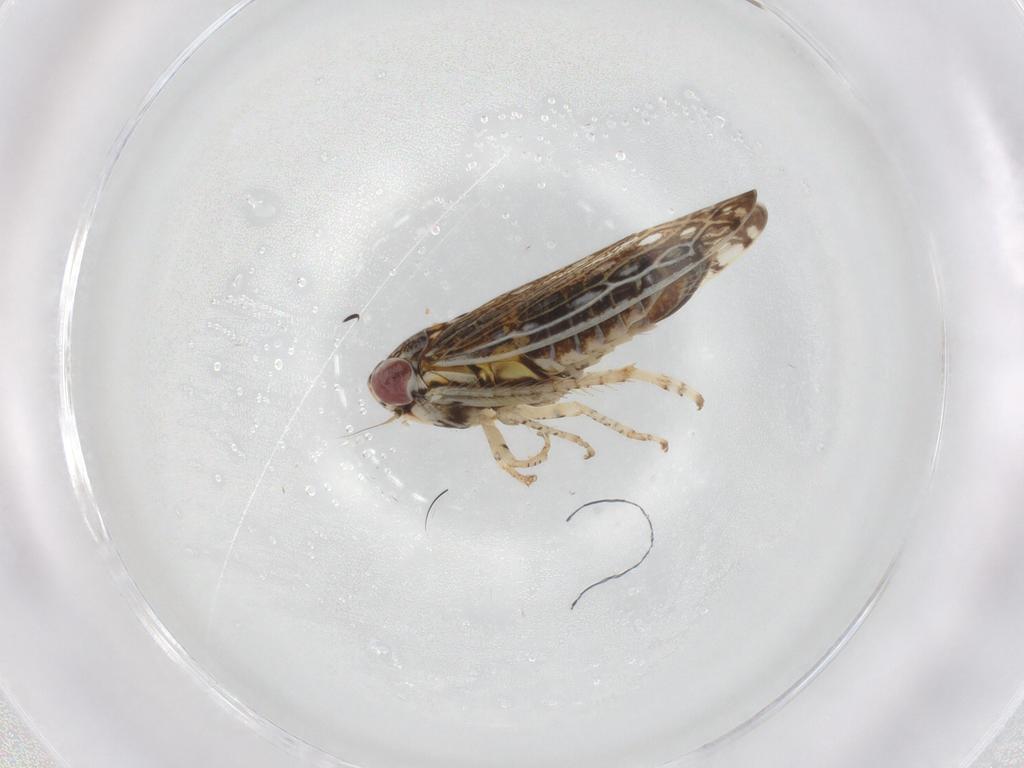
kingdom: Animalia
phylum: Arthropoda
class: Insecta
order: Hemiptera
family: Cicadellidae
